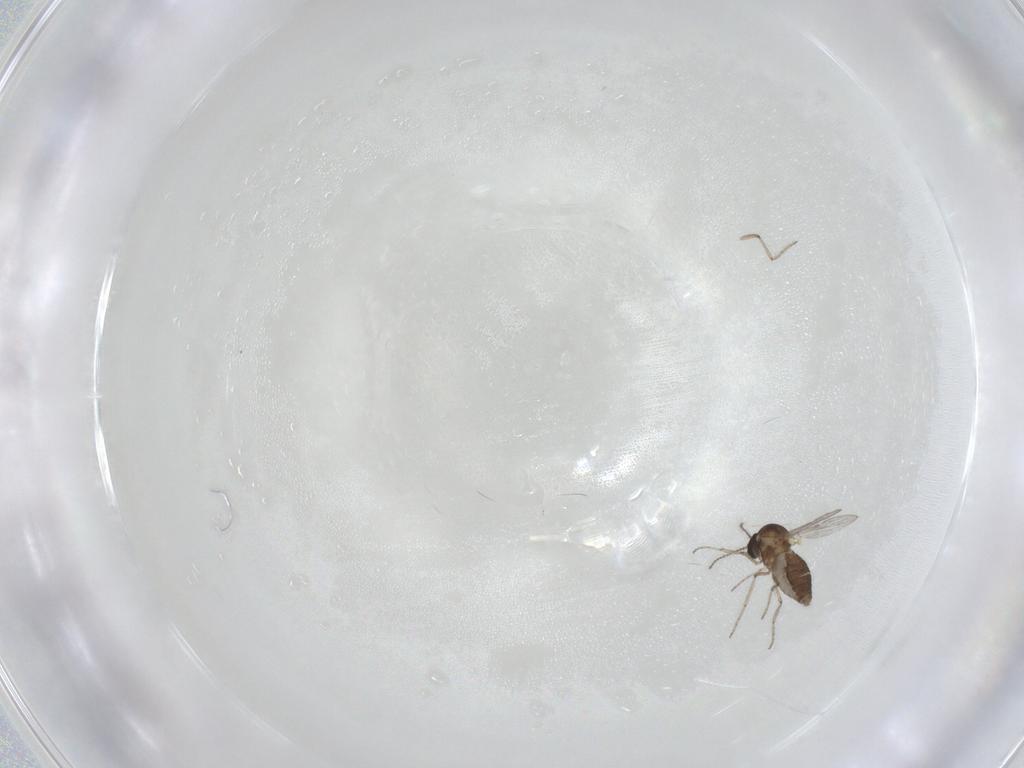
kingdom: Animalia
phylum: Arthropoda
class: Insecta
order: Diptera
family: Ceratopogonidae
